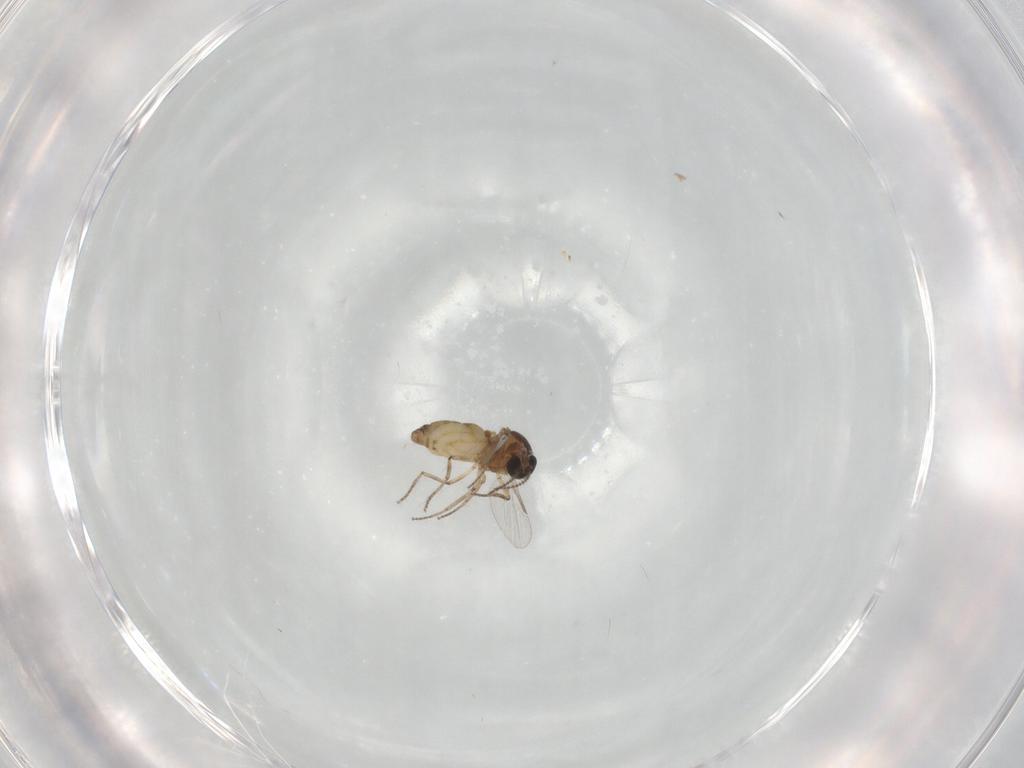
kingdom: Animalia
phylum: Arthropoda
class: Insecta
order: Diptera
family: Ceratopogonidae
